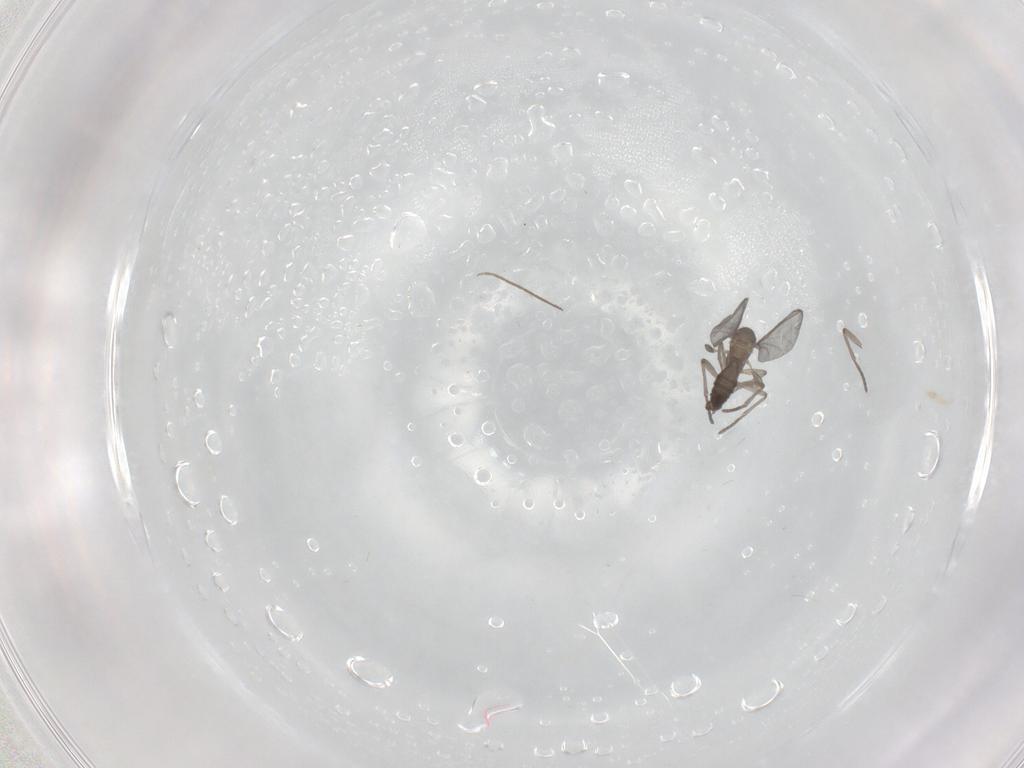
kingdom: Animalia
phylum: Arthropoda
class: Insecta
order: Diptera
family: Sciaridae
